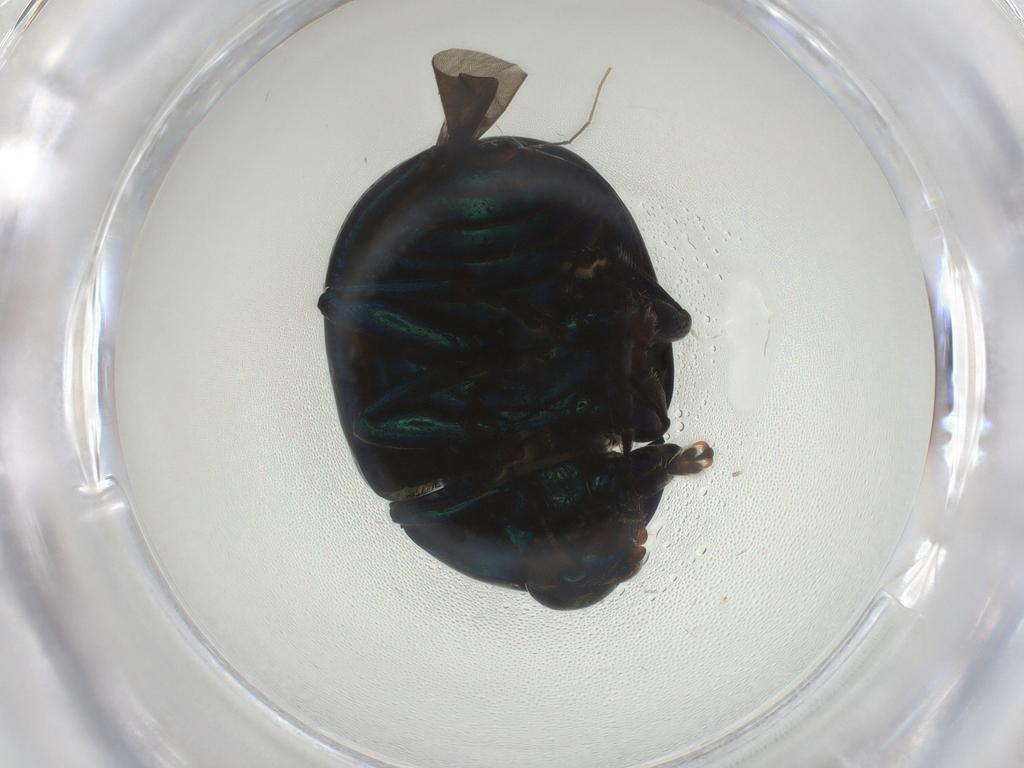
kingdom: Animalia
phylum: Arthropoda
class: Insecta
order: Coleoptera
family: Chrysomelidae
